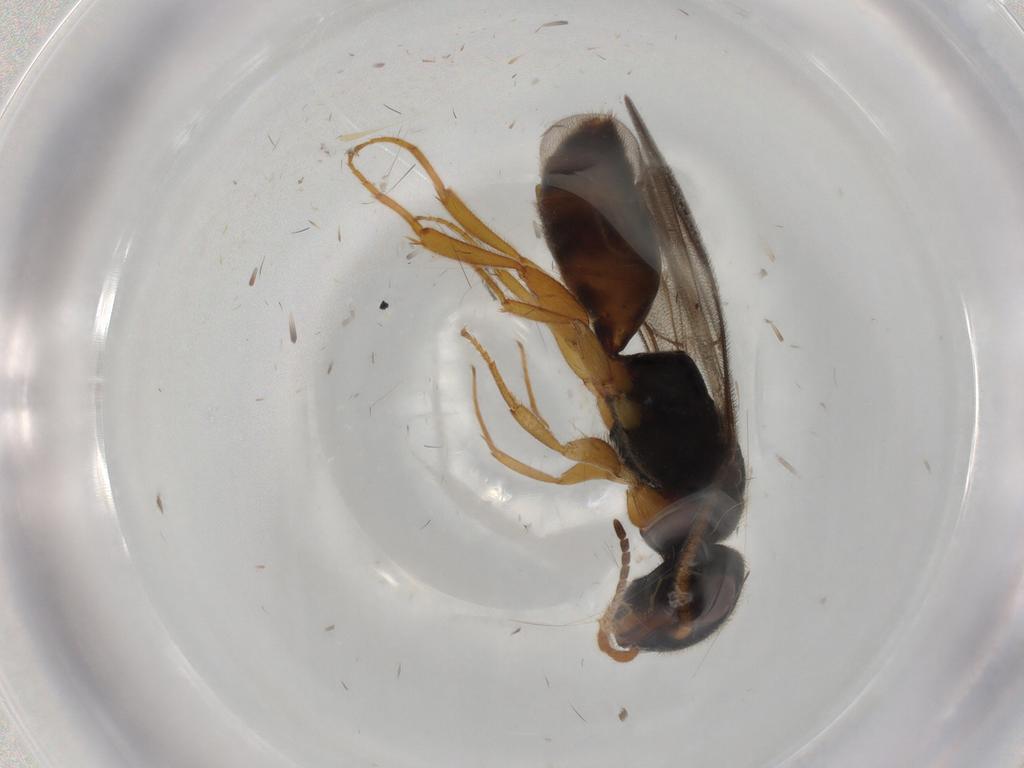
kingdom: Animalia
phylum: Arthropoda
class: Insecta
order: Hymenoptera
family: Bethylidae
